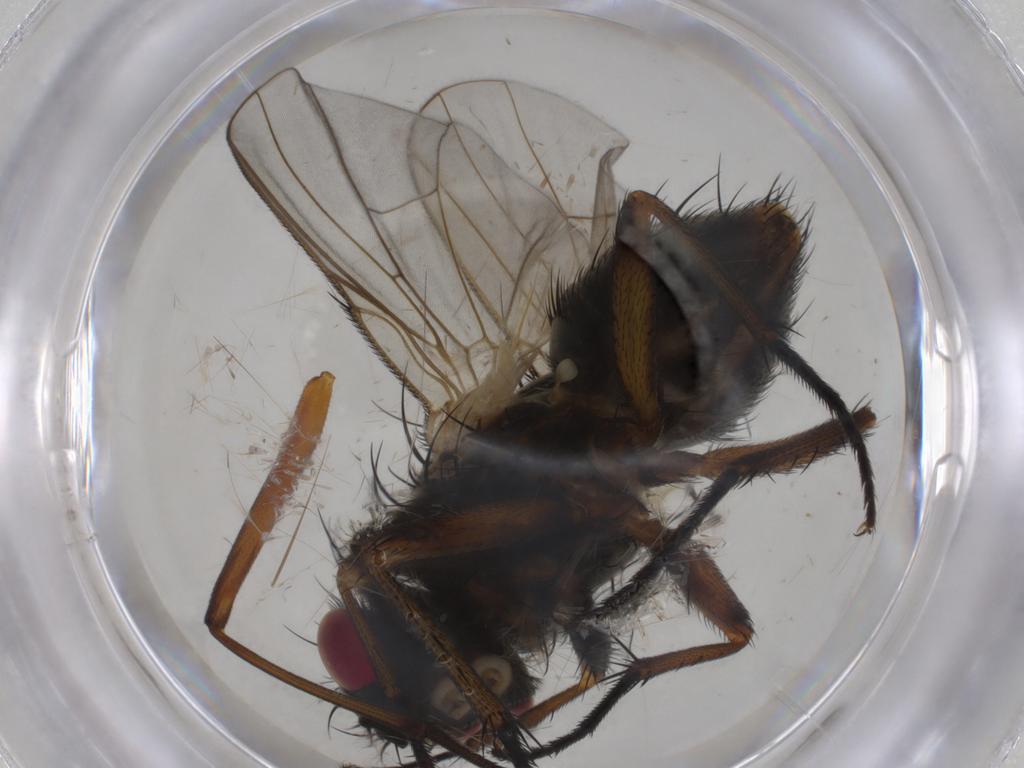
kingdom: Animalia
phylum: Arthropoda
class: Insecta
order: Diptera
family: Muscidae
